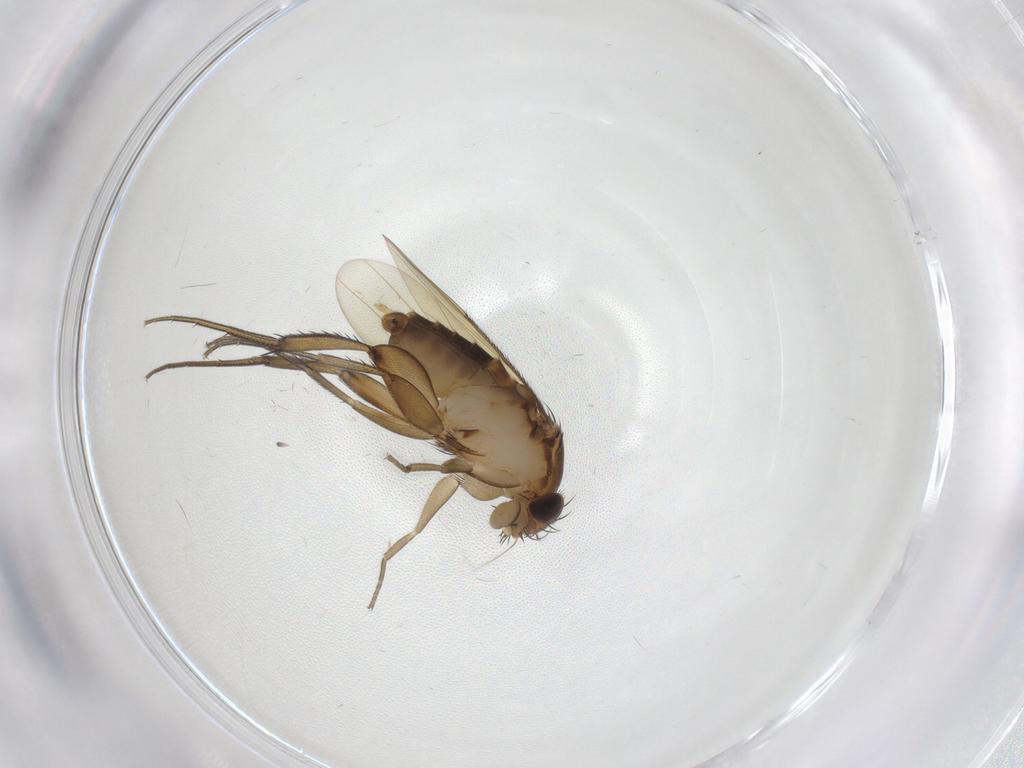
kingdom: Animalia
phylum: Arthropoda
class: Insecta
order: Diptera
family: Phoridae
